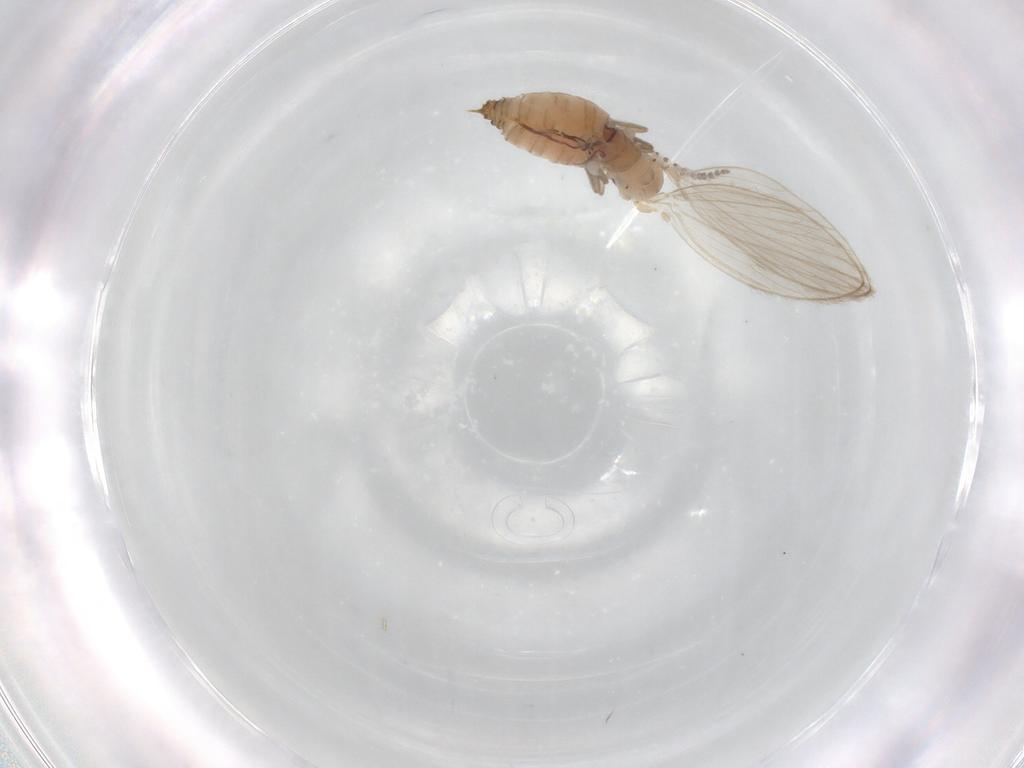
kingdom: Animalia
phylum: Arthropoda
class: Insecta
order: Diptera
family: Psychodidae
